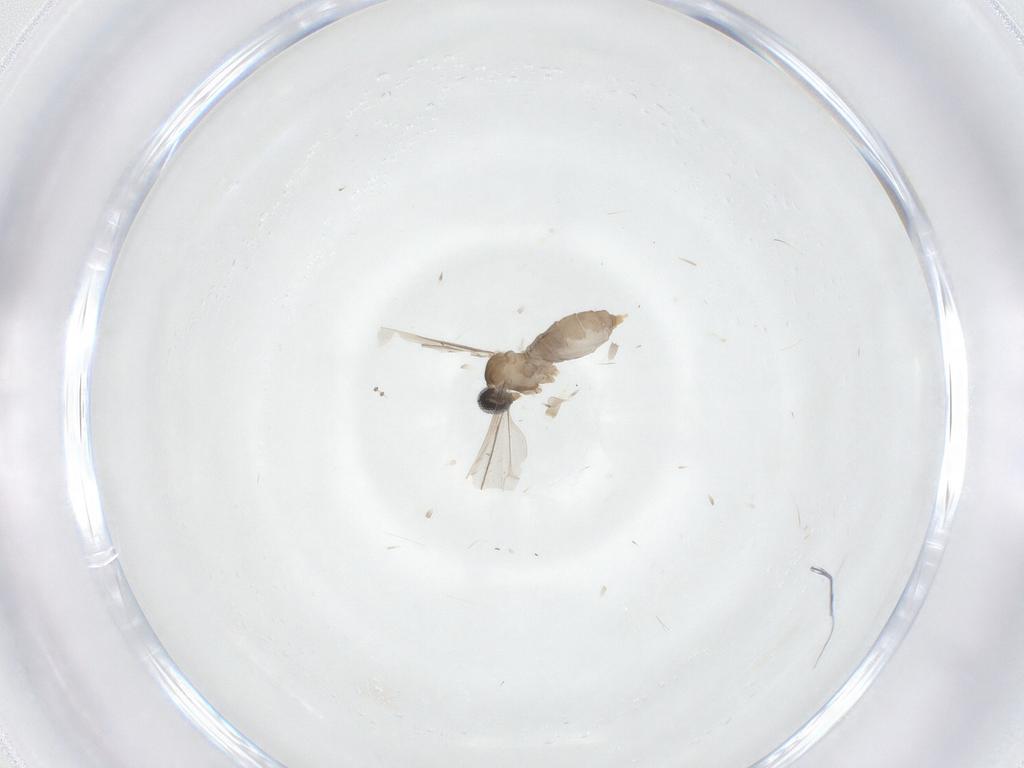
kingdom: Animalia
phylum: Arthropoda
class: Insecta
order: Diptera
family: Cecidomyiidae
